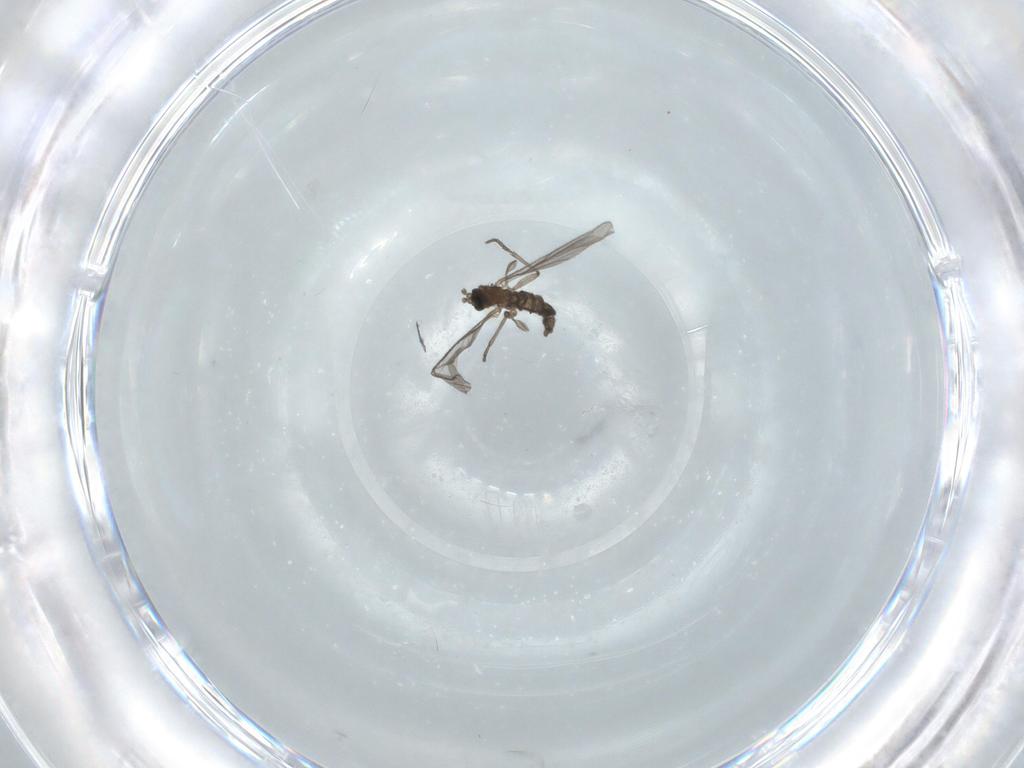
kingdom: Animalia
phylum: Arthropoda
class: Insecta
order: Diptera
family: Sciaridae
